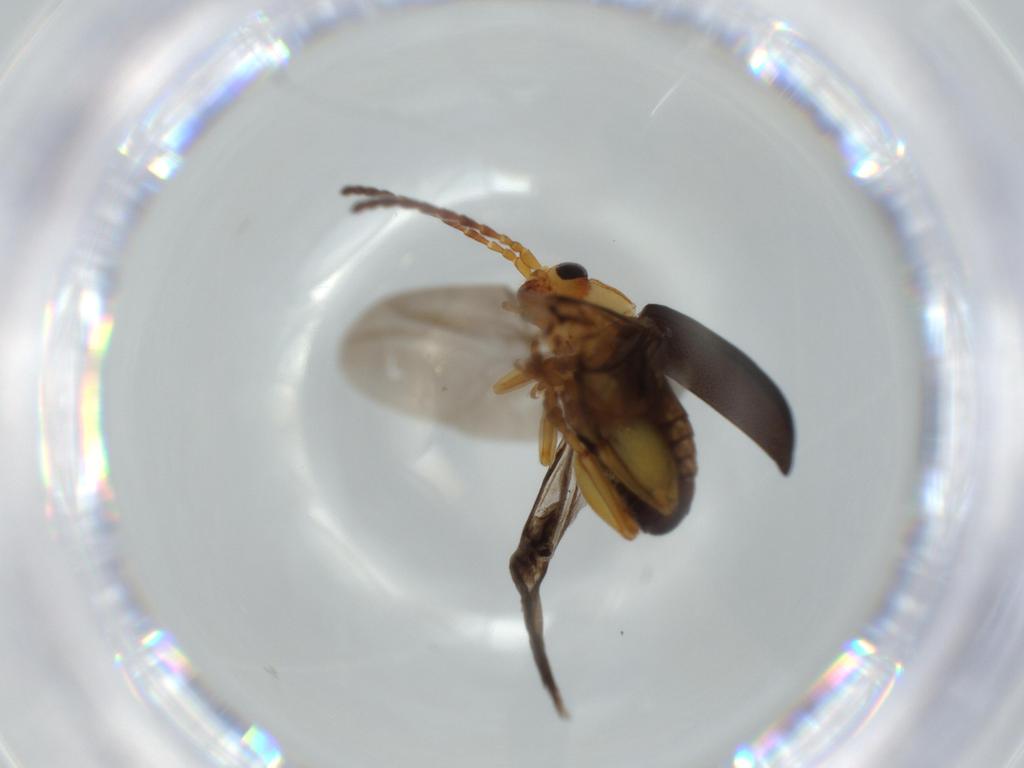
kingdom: Animalia
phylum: Arthropoda
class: Insecta
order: Coleoptera
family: Chrysomelidae
